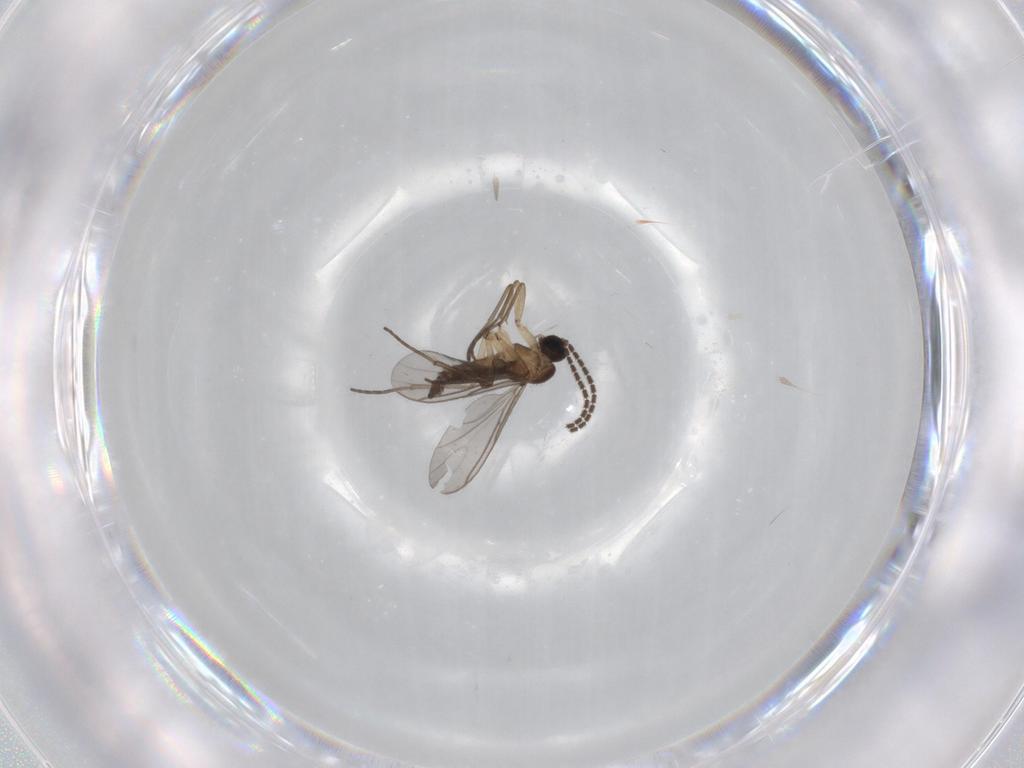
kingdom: Animalia
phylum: Arthropoda
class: Insecta
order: Diptera
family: Sciaridae
